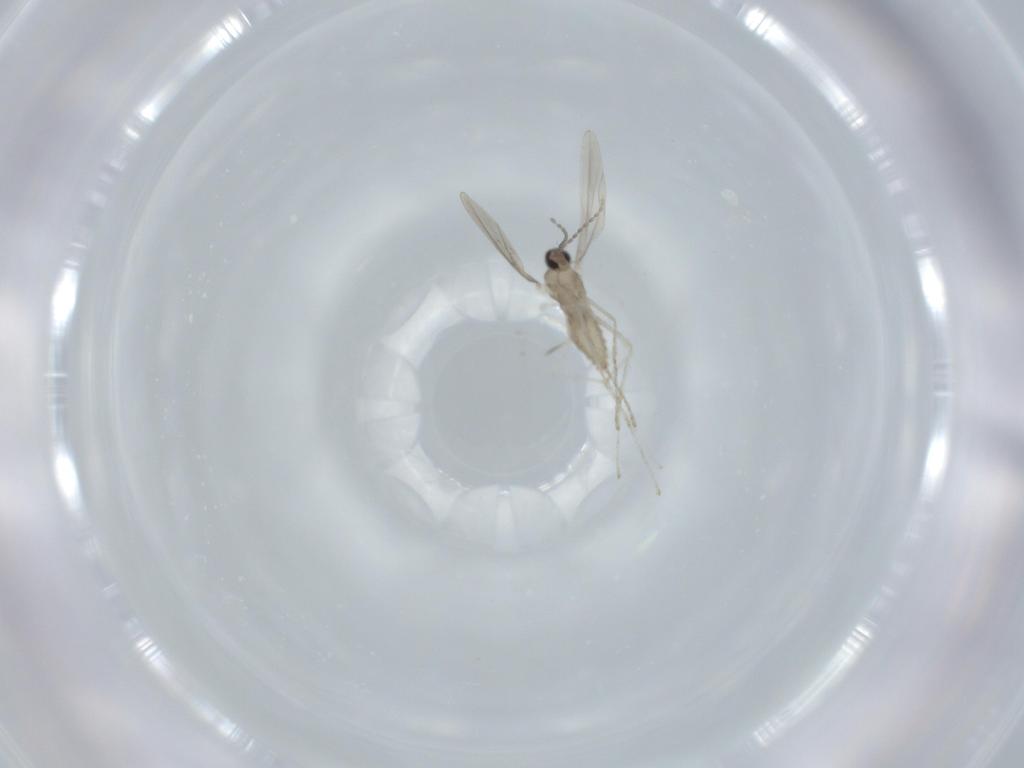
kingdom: Animalia
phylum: Arthropoda
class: Insecta
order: Diptera
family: Cecidomyiidae
